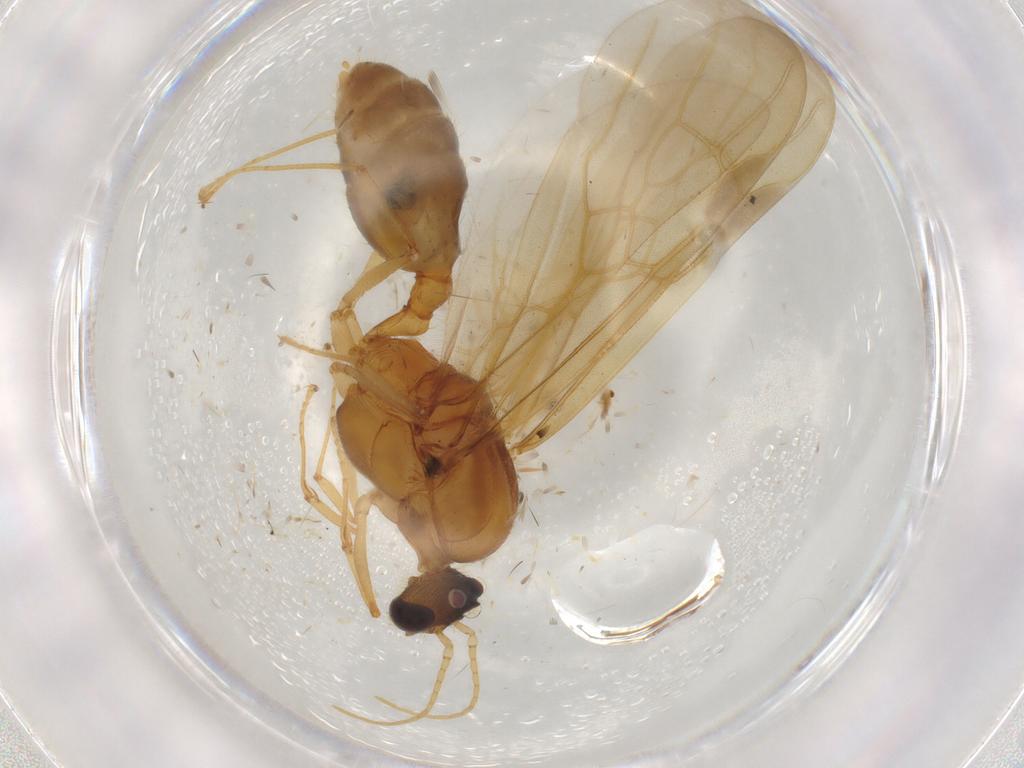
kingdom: Animalia
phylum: Arthropoda
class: Insecta
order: Hymenoptera
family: Formicidae
